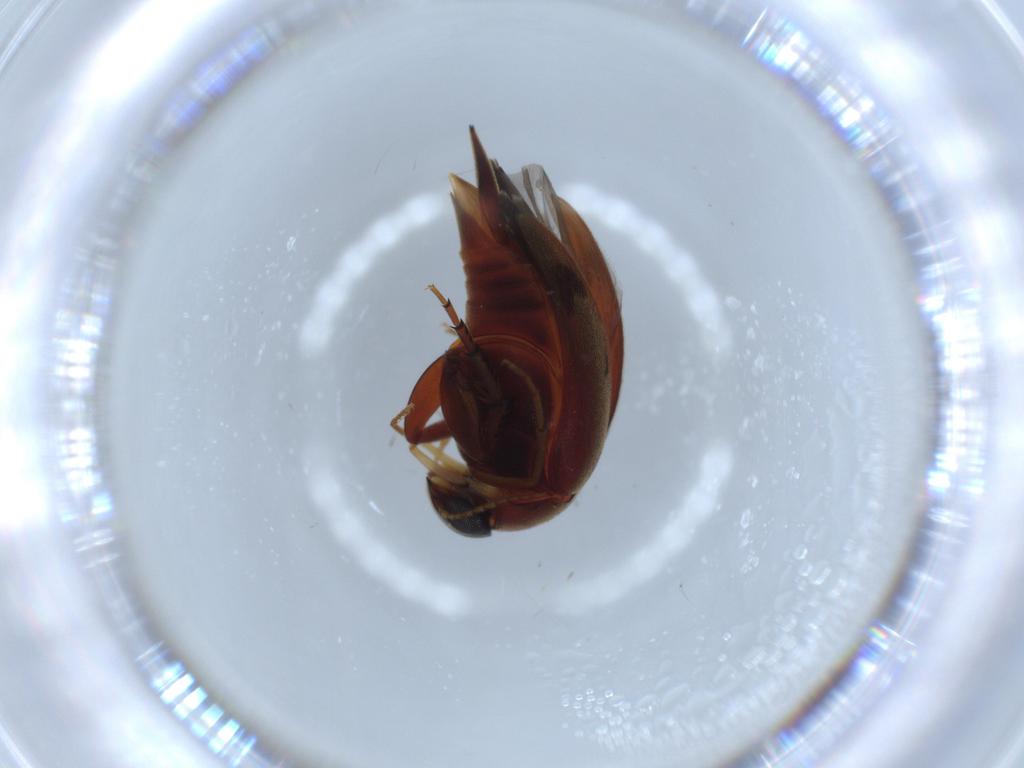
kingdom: Animalia
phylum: Arthropoda
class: Insecta
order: Coleoptera
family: Mordellidae
